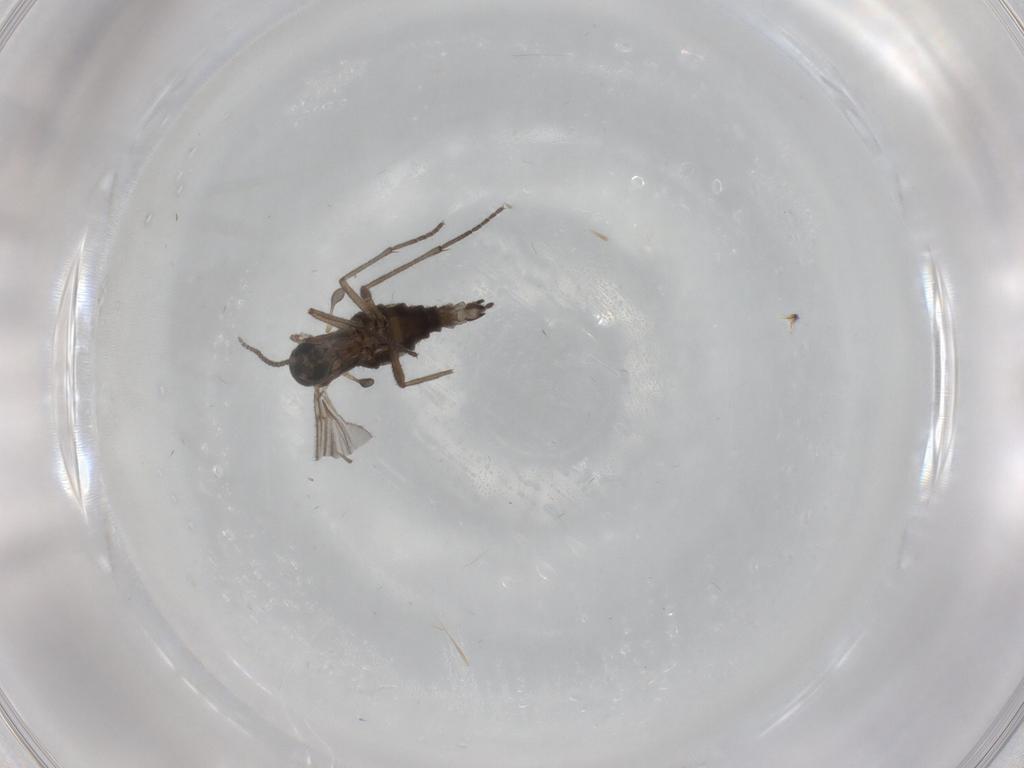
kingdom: Animalia
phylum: Arthropoda
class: Insecta
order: Diptera
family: Sciaridae
